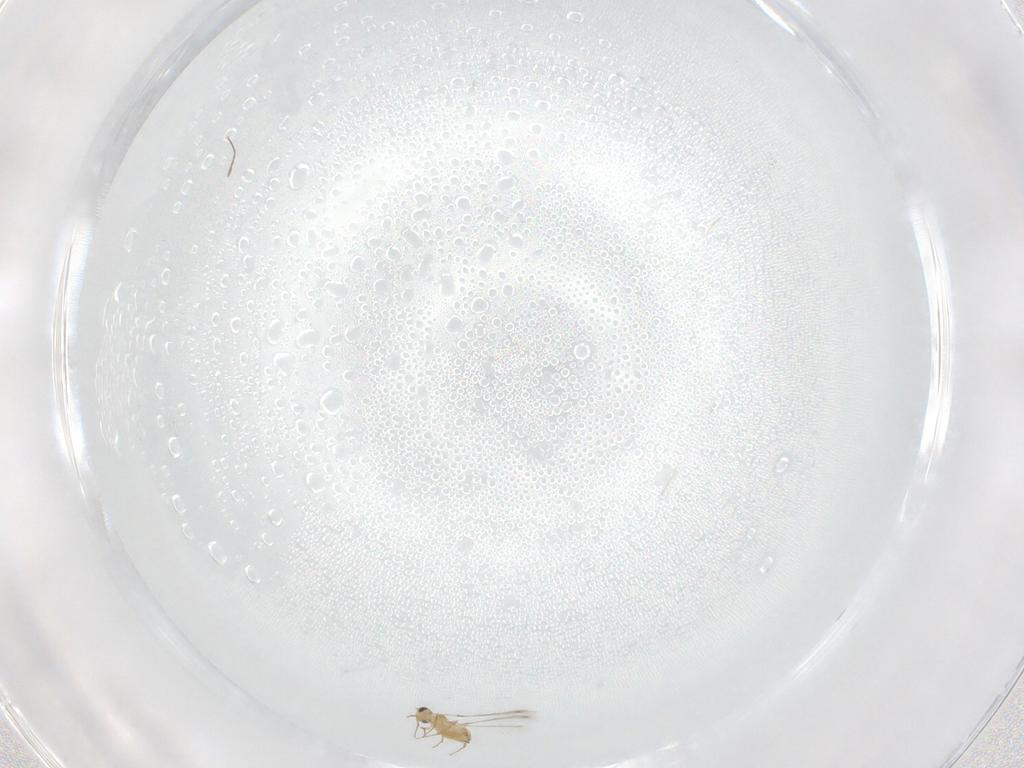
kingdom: Animalia
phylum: Arthropoda
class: Insecta
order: Hymenoptera
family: Mymaridae
